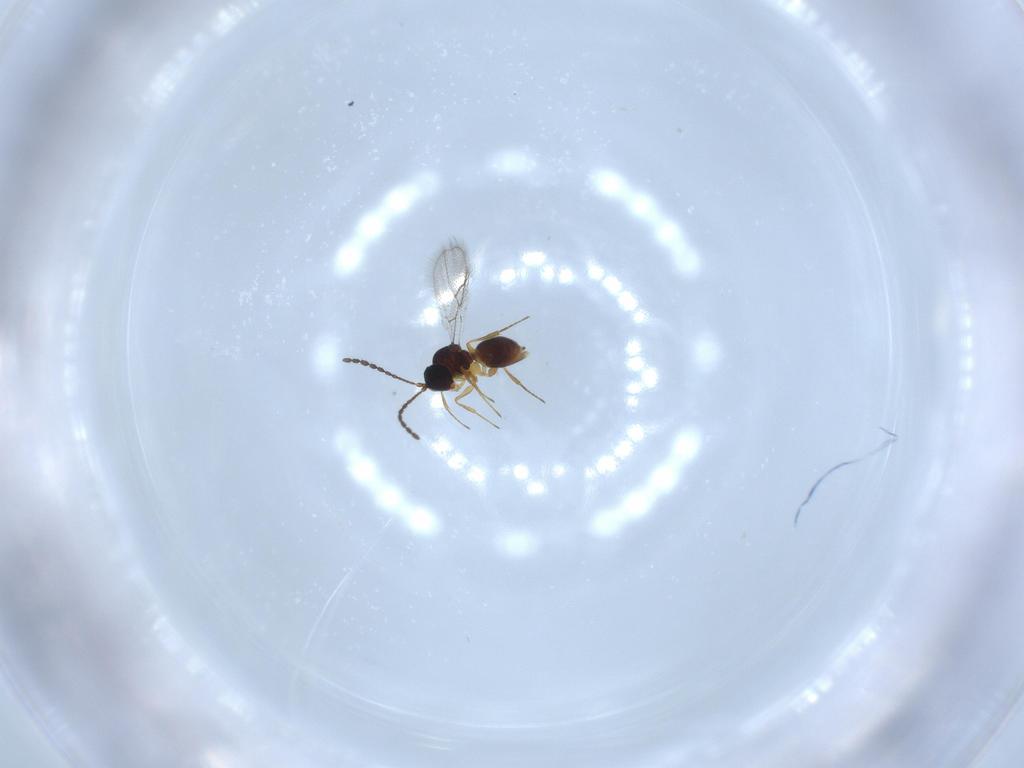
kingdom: Animalia
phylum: Arthropoda
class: Insecta
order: Hymenoptera
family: Figitidae
